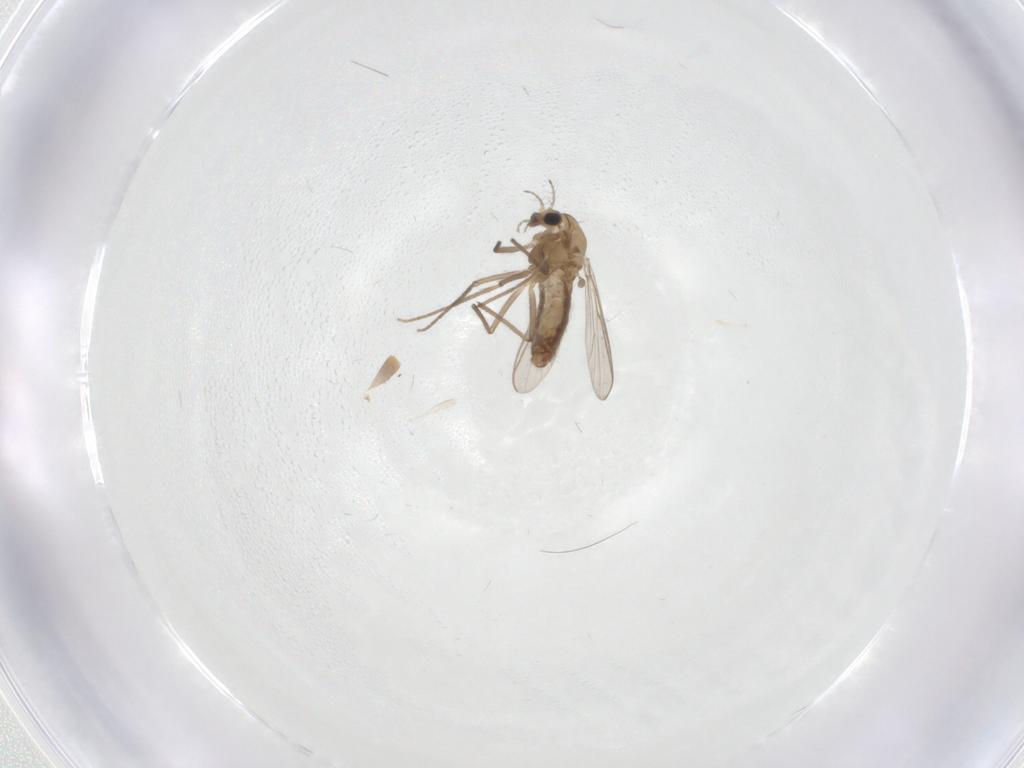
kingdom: Animalia
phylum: Arthropoda
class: Insecta
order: Diptera
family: Chironomidae
